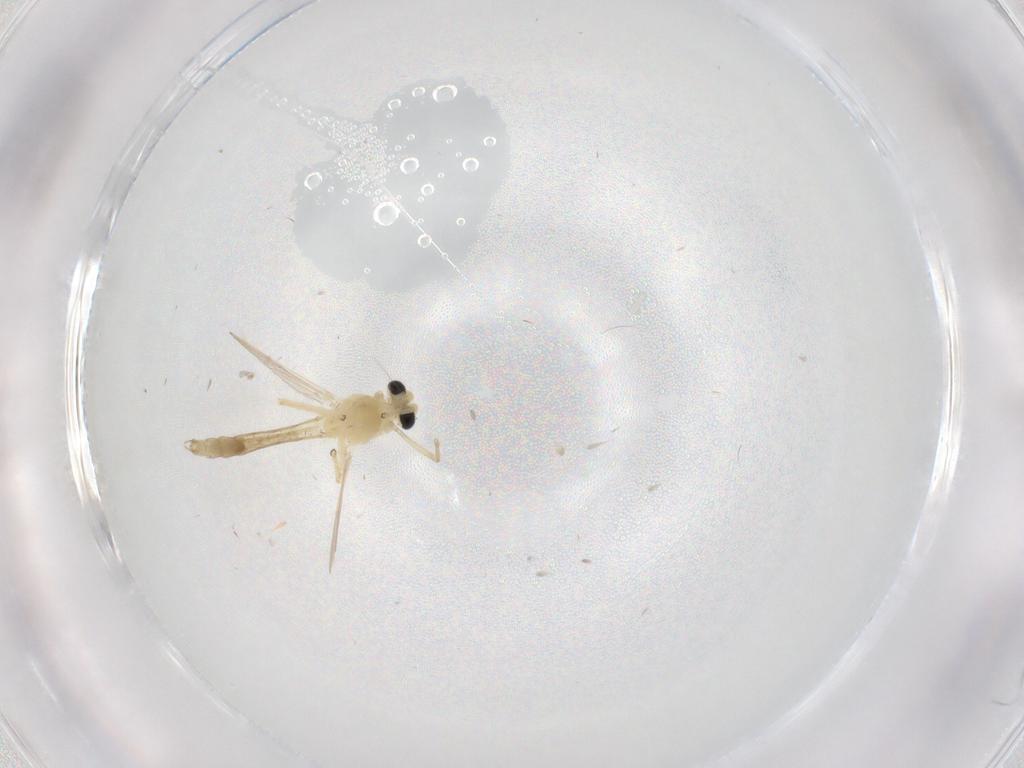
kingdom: Animalia
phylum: Arthropoda
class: Insecta
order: Diptera
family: Chironomidae
